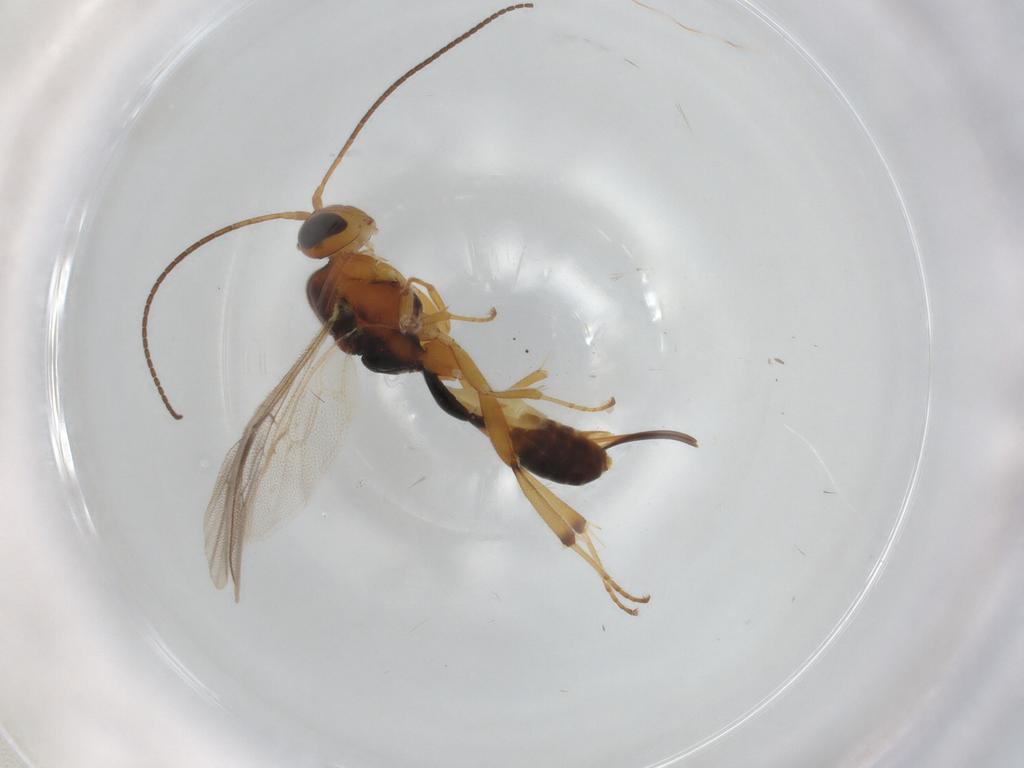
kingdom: Animalia
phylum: Arthropoda
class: Insecta
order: Hymenoptera
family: Ichneumonidae
